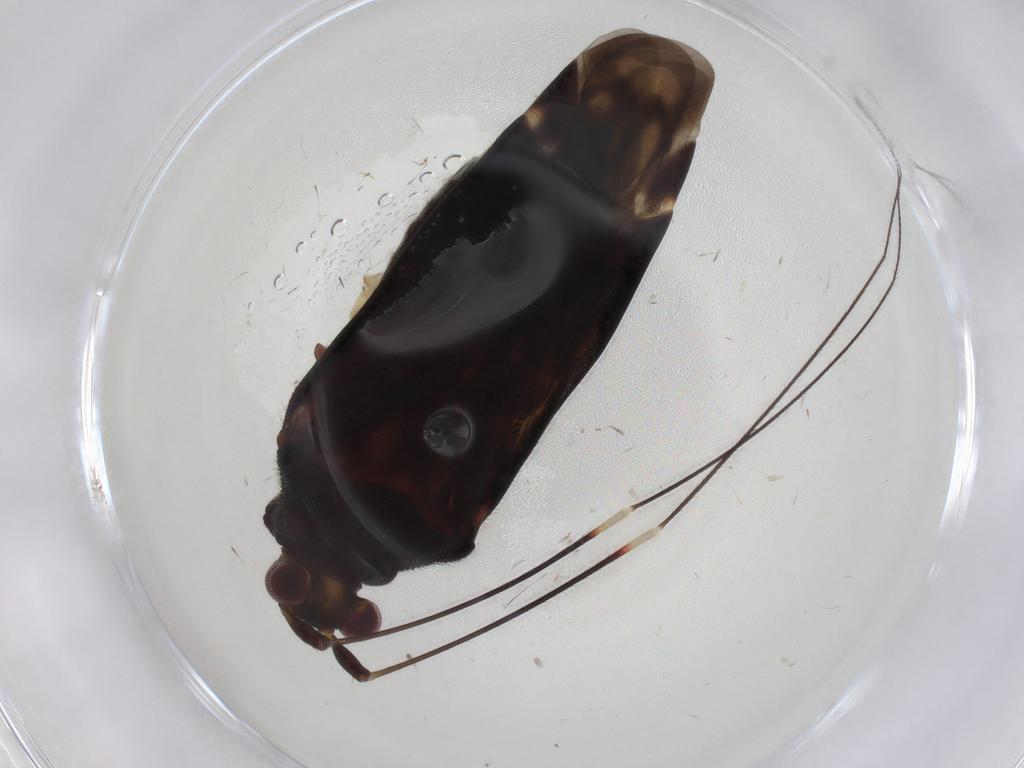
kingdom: Animalia
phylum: Arthropoda
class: Insecta
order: Hemiptera
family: Miridae
